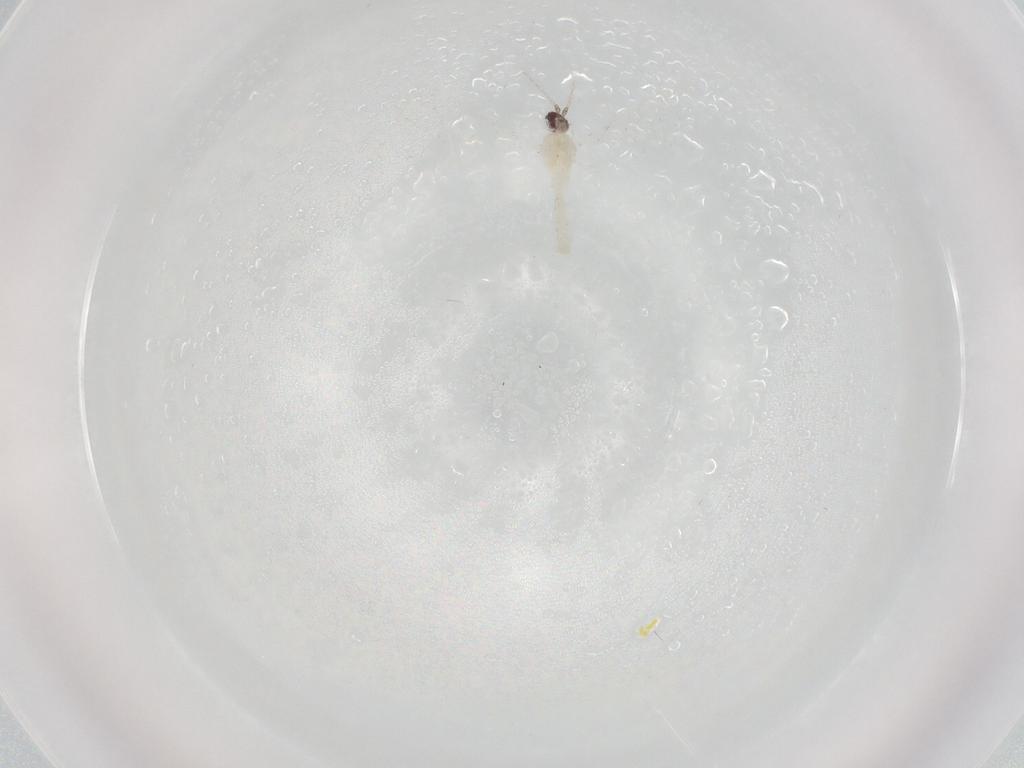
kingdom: Animalia
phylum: Arthropoda
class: Insecta
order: Diptera
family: Cecidomyiidae
